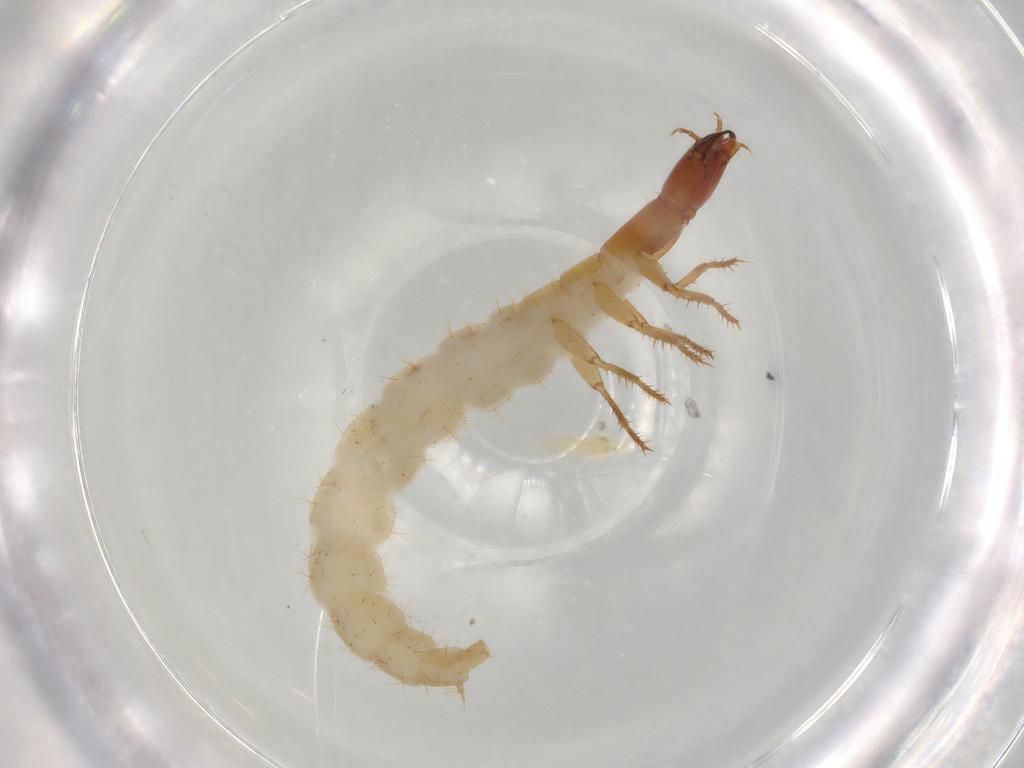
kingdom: Animalia
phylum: Arthropoda
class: Insecta
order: Coleoptera
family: Staphylinidae
